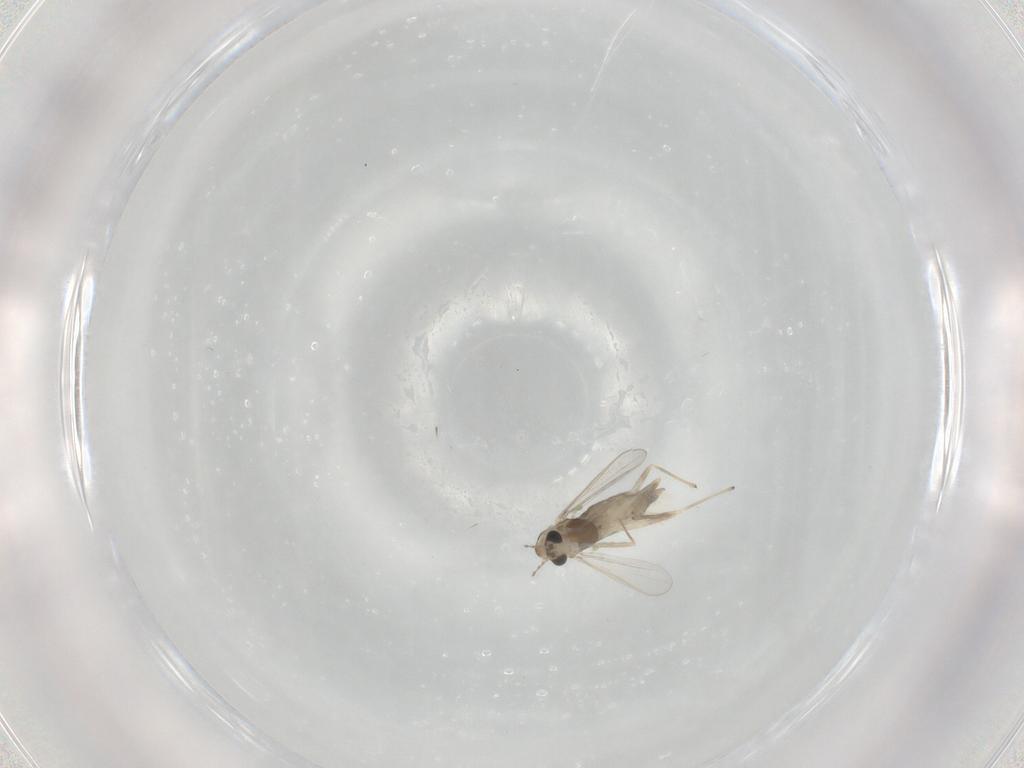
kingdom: Animalia
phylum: Arthropoda
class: Insecta
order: Diptera
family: Chironomidae
